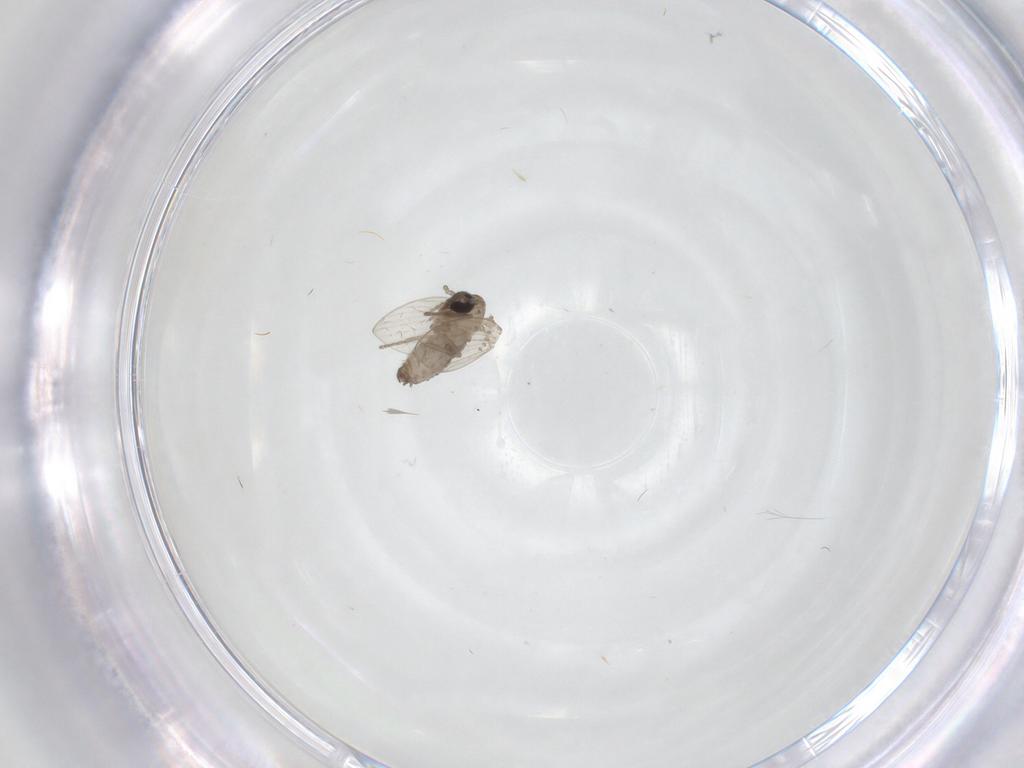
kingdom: Animalia
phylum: Arthropoda
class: Insecta
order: Diptera
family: Psychodidae
